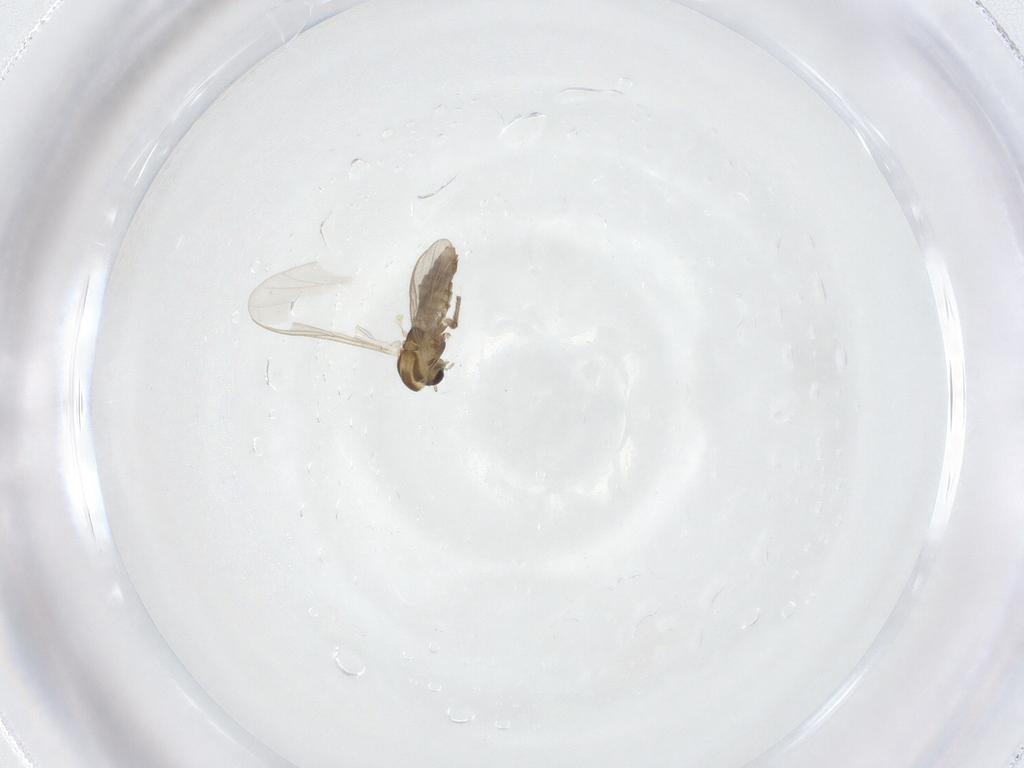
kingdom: Animalia
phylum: Arthropoda
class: Insecta
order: Diptera
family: Chironomidae
